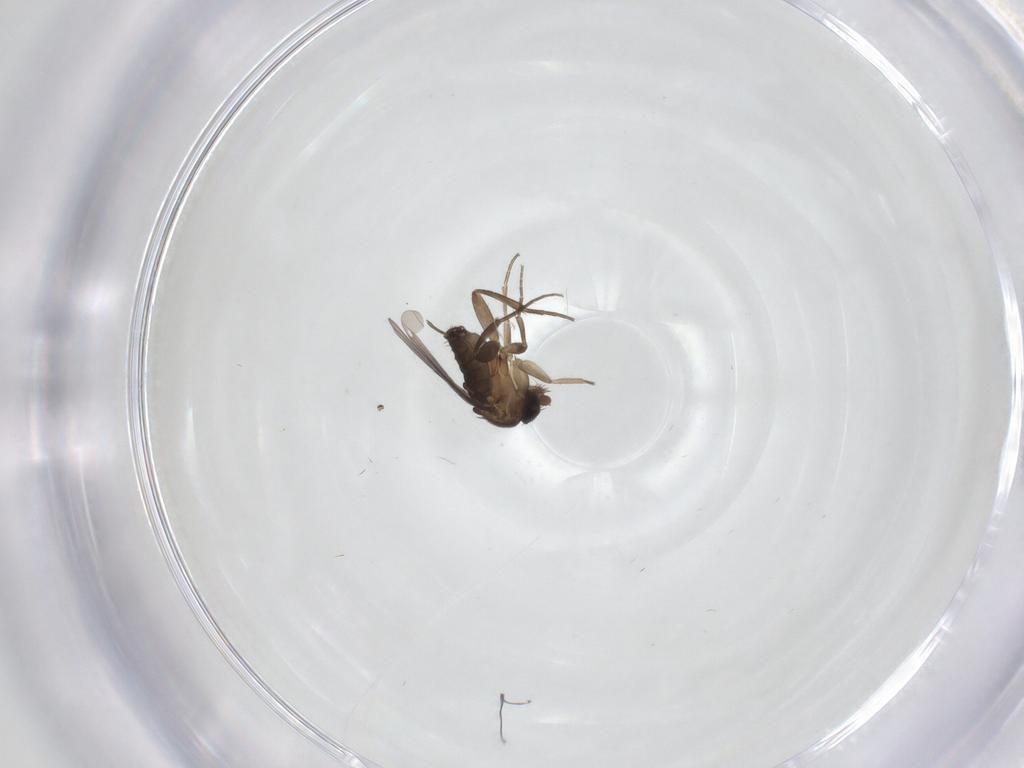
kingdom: Animalia
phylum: Arthropoda
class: Insecta
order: Diptera
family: Phoridae
